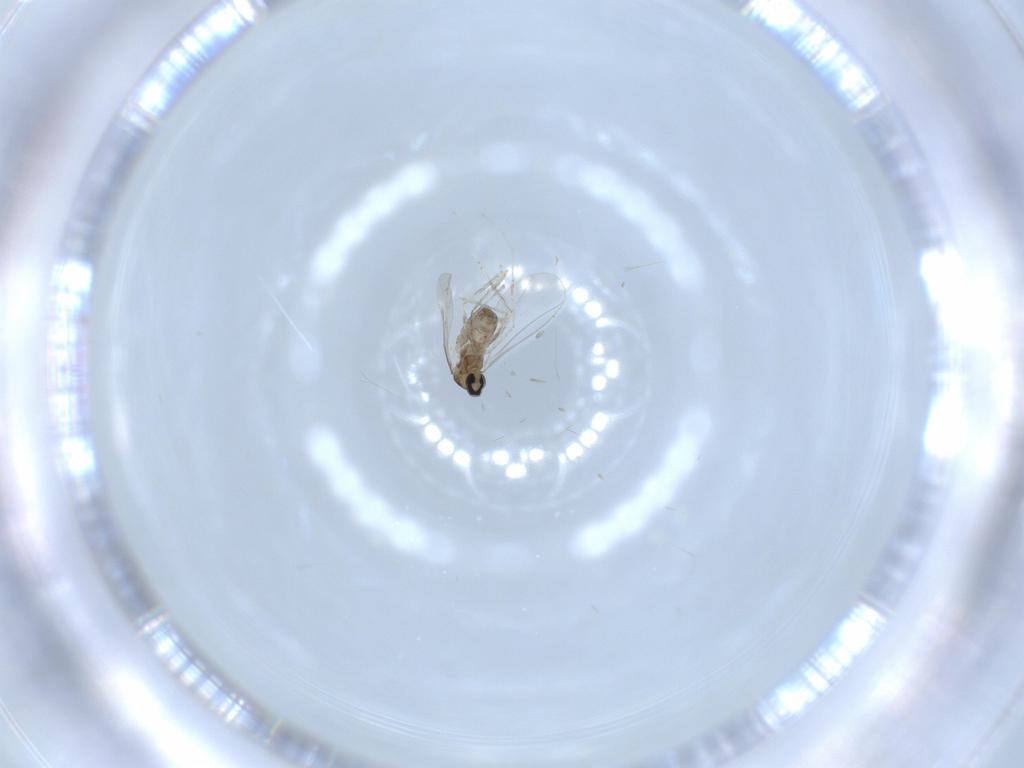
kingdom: Animalia
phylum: Arthropoda
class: Insecta
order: Diptera
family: Cecidomyiidae
